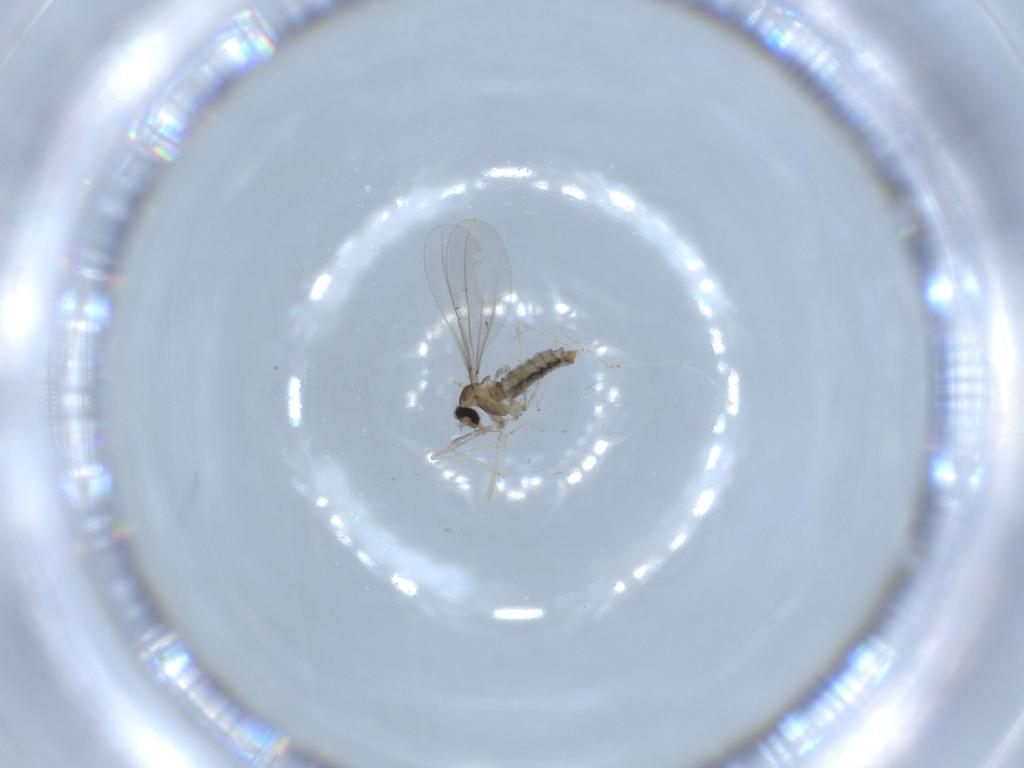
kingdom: Animalia
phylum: Arthropoda
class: Insecta
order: Diptera
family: Cecidomyiidae
